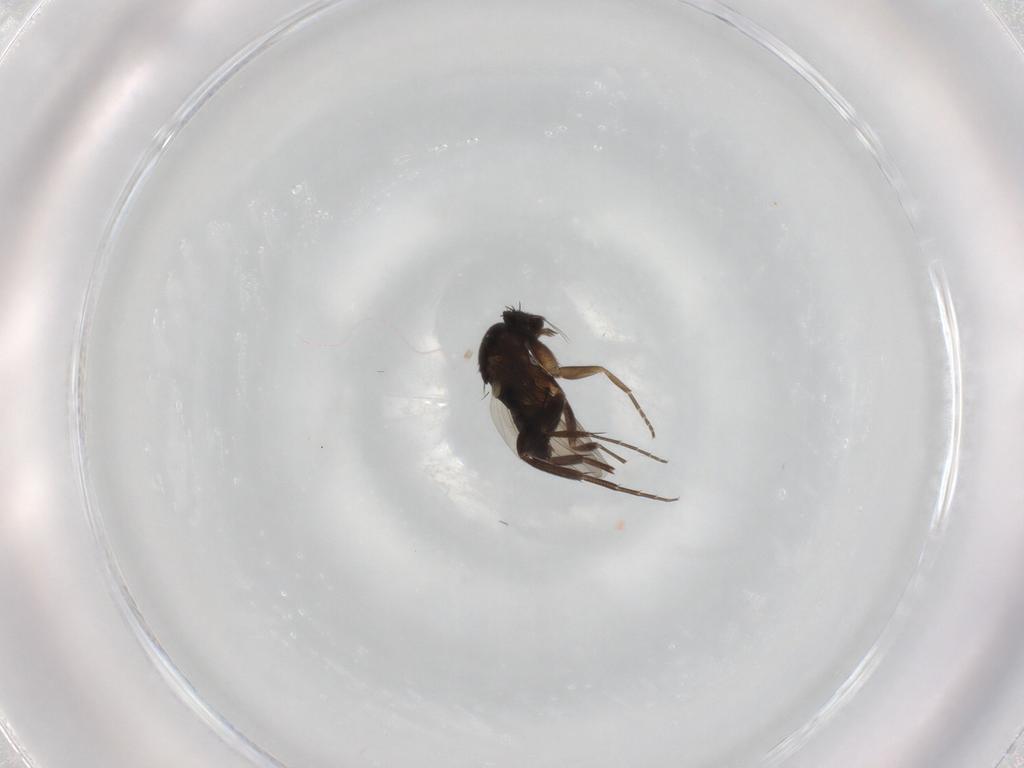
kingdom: Animalia
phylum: Arthropoda
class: Insecta
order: Diptera
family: Phoridae
